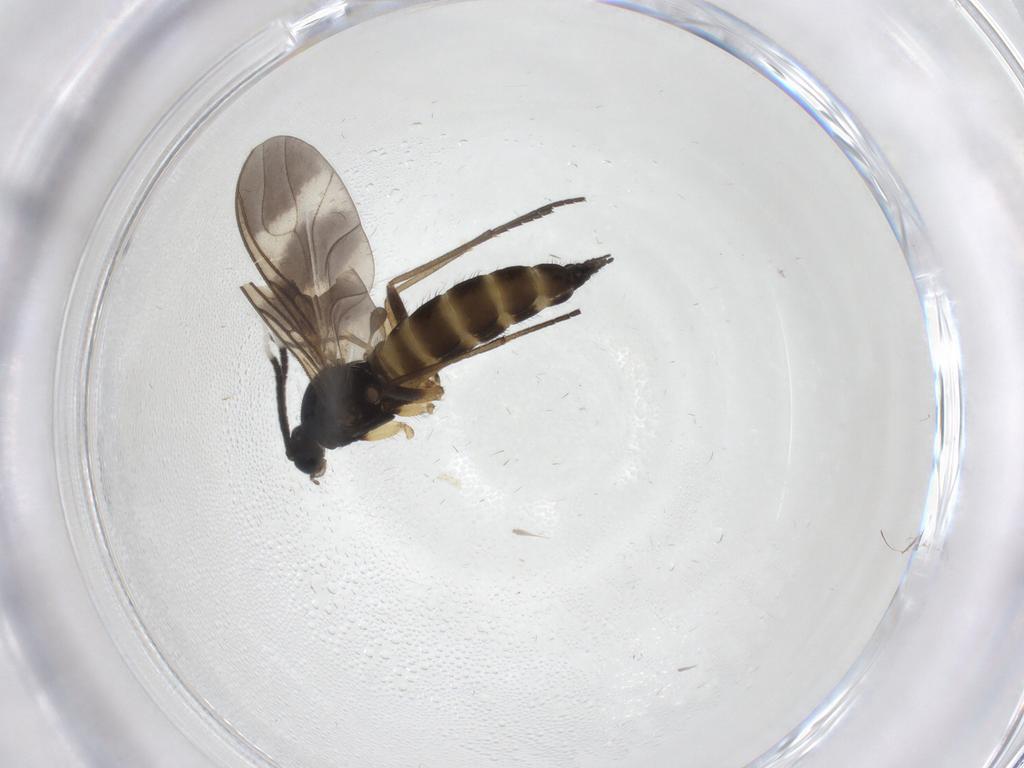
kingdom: Animalia
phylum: Arthropoda
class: Insecta
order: Diptera
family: Sciaridae
